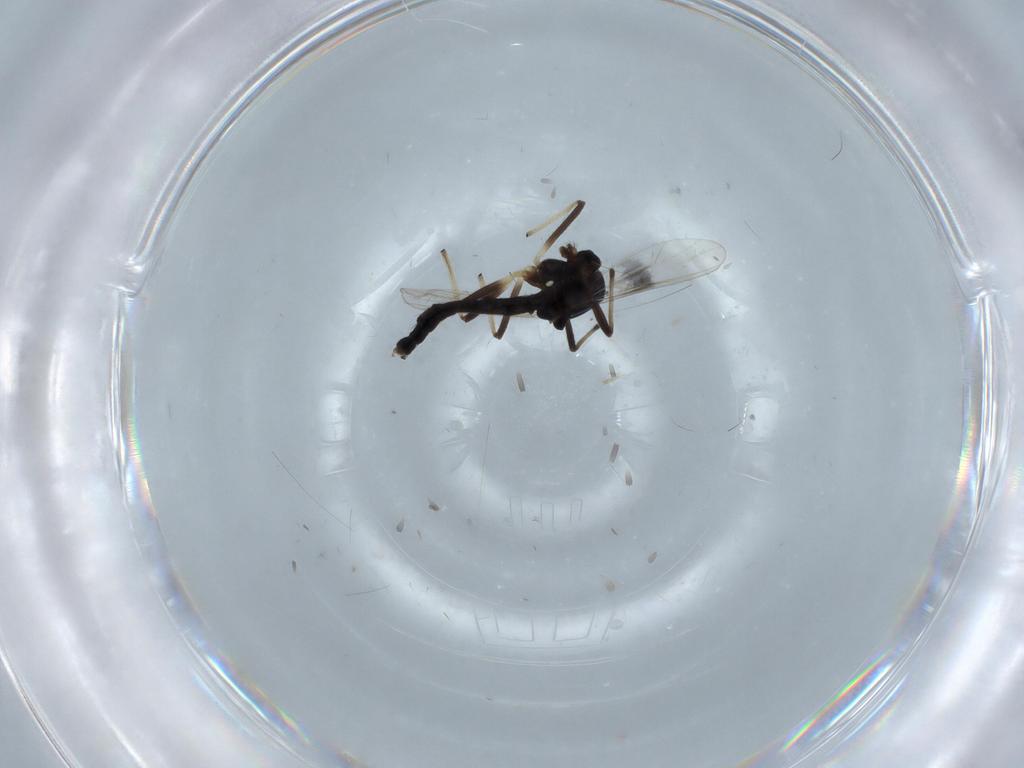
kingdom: Animalia
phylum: Arthropoda
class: Insecta
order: Diptera
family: Chironomidae
